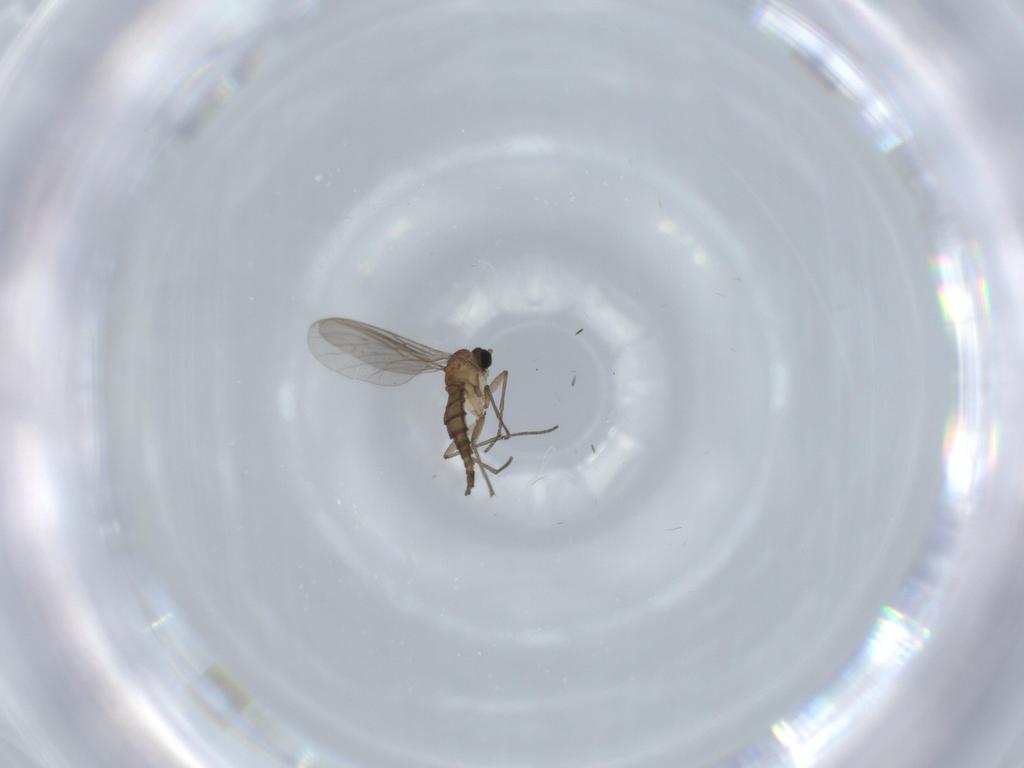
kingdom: Animalia
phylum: Arthropoda
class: Insecta
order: Diptera
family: Sciaridae
